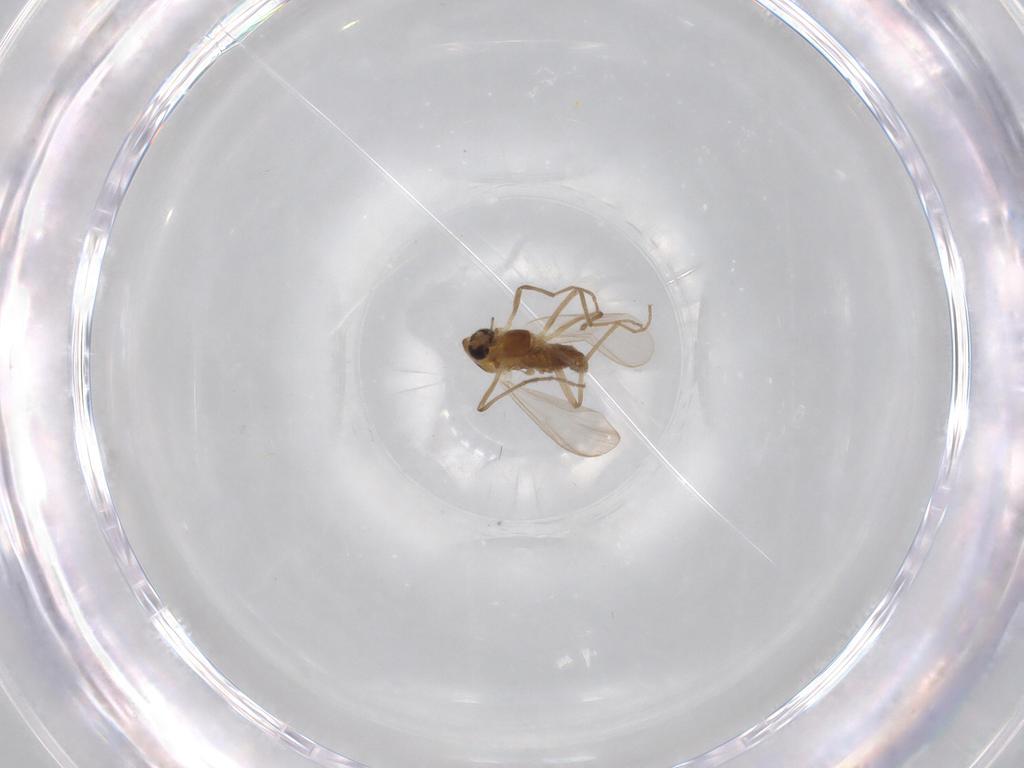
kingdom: Animalia
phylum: Arthropoda
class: Insecta
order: Diptera
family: Chironomidae
